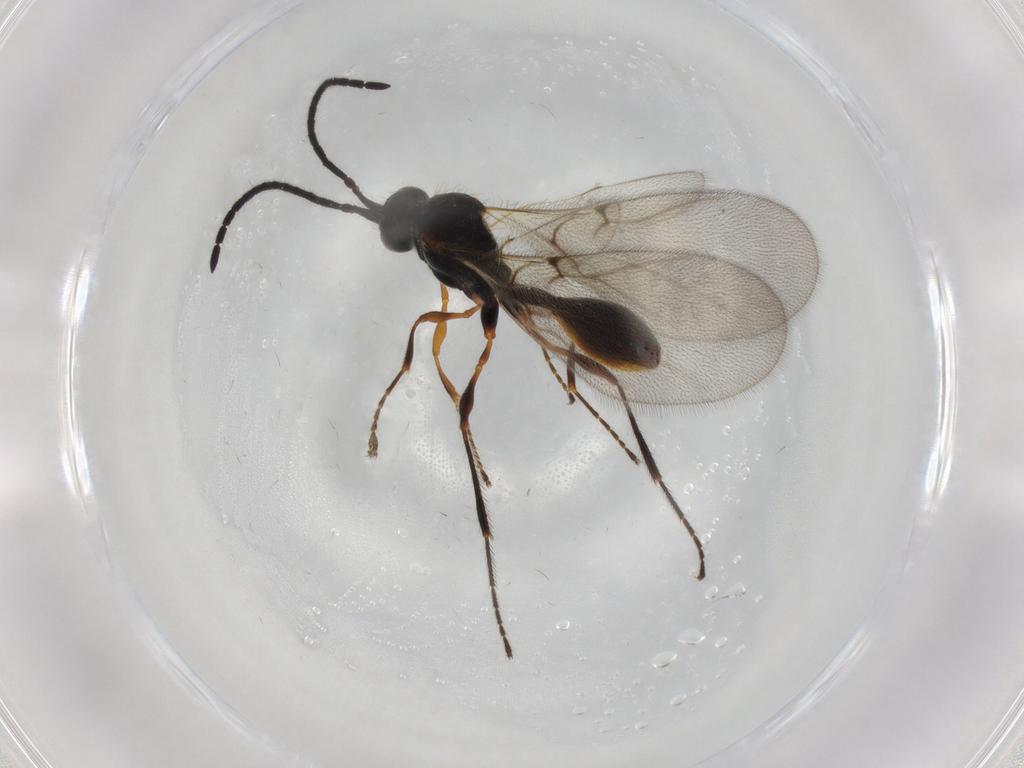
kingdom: Animalia
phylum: Arthropoda
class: Insecta
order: Hymenoptera
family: Diapriidae
